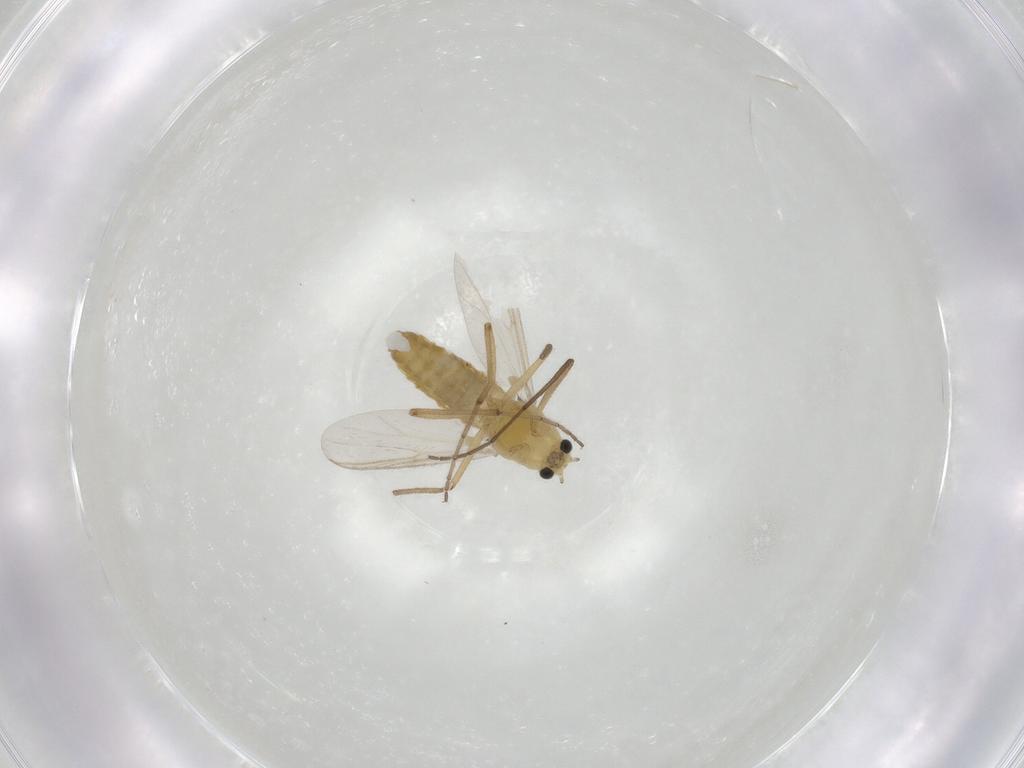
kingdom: Animalia
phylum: Arthropoda
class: Insecta
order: Diptera
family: Chironomidae
